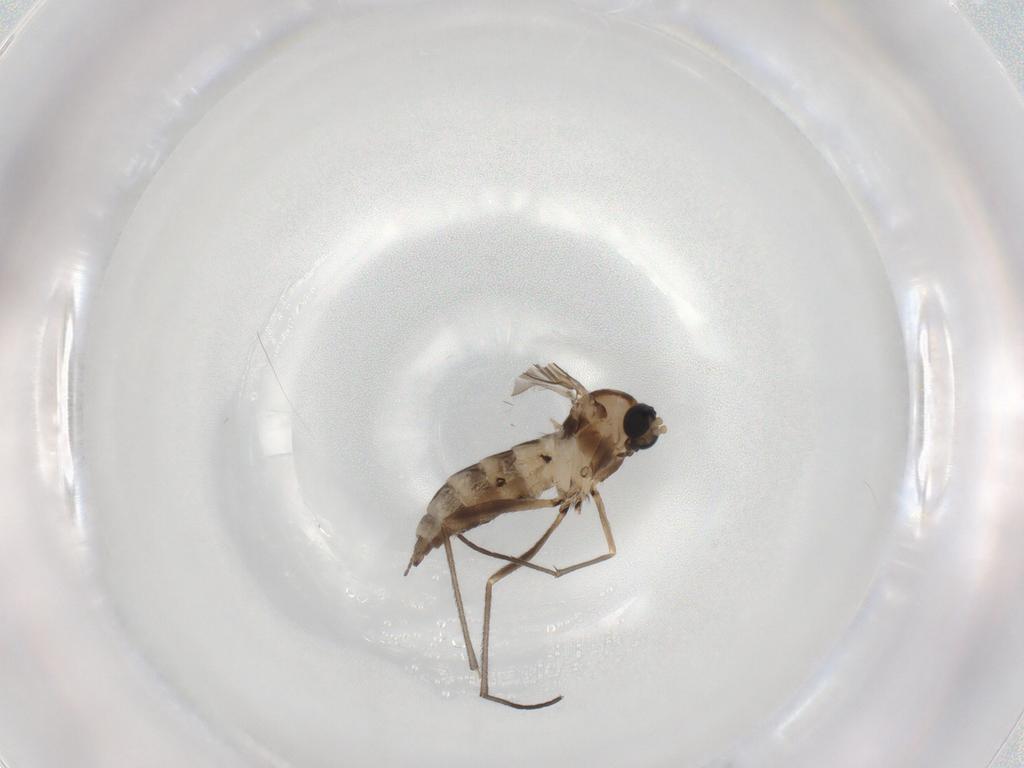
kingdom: Animalia
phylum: Arthropoda
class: Insecta
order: Diptera
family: Sciaridae
